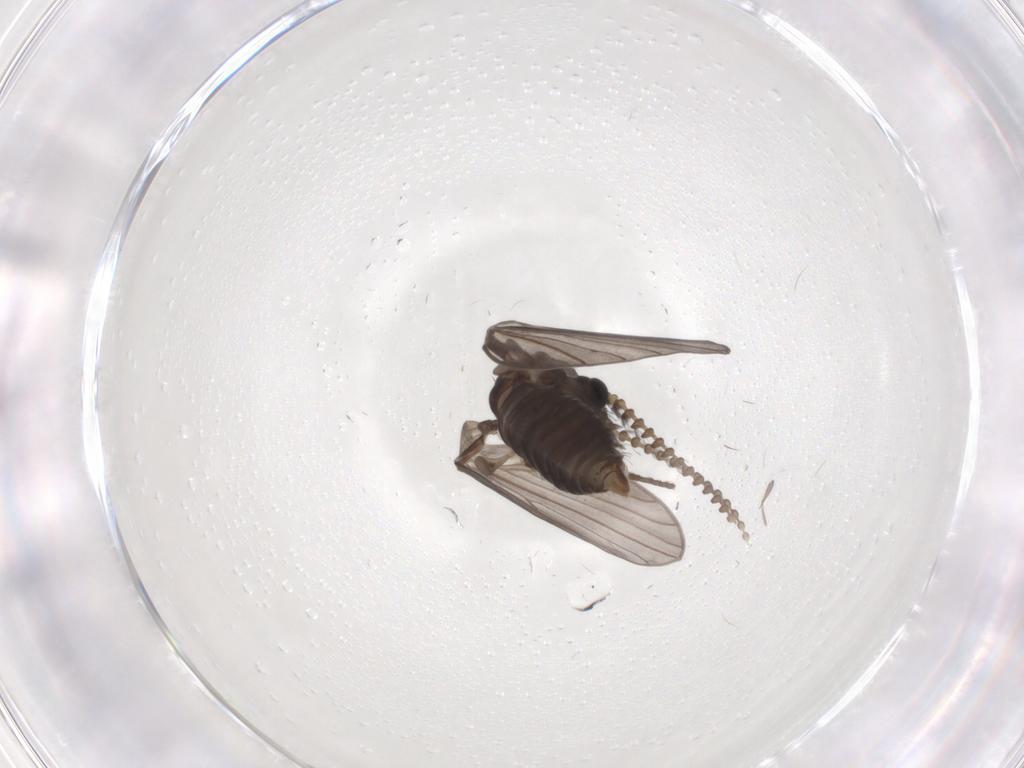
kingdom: Animalia
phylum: Arthropoda
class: Insecta
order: Diptera
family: Psychodidae
